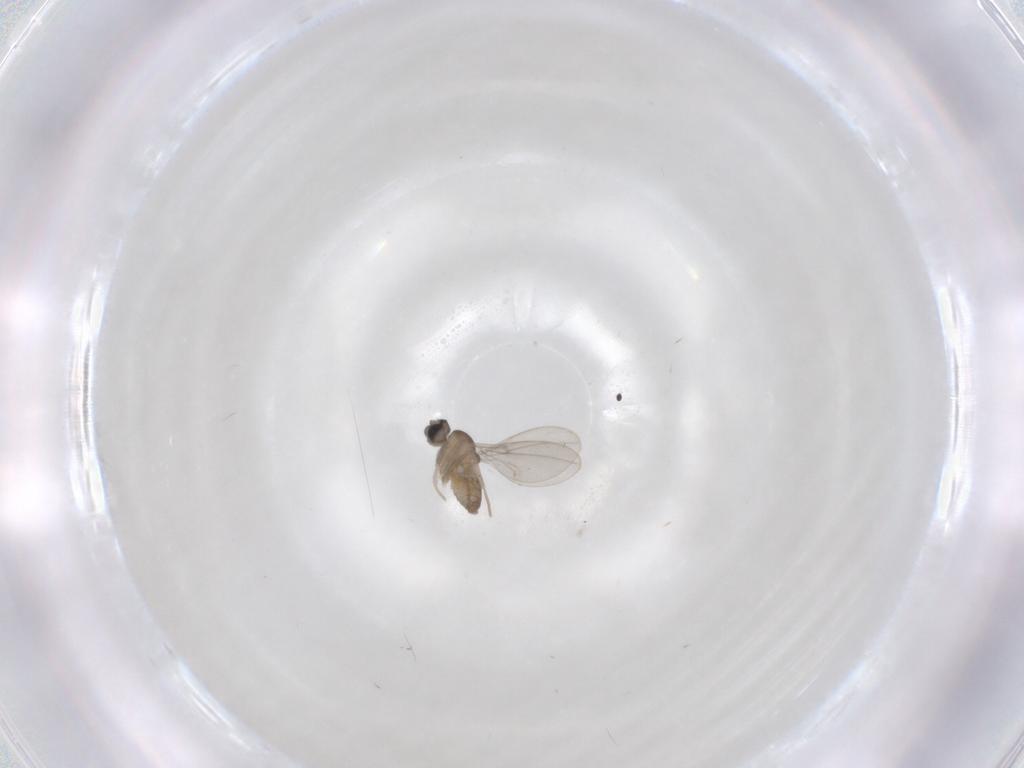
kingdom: Animalia
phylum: Arthropoda
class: Insecta
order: Diptera
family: Cecidomyiidae
